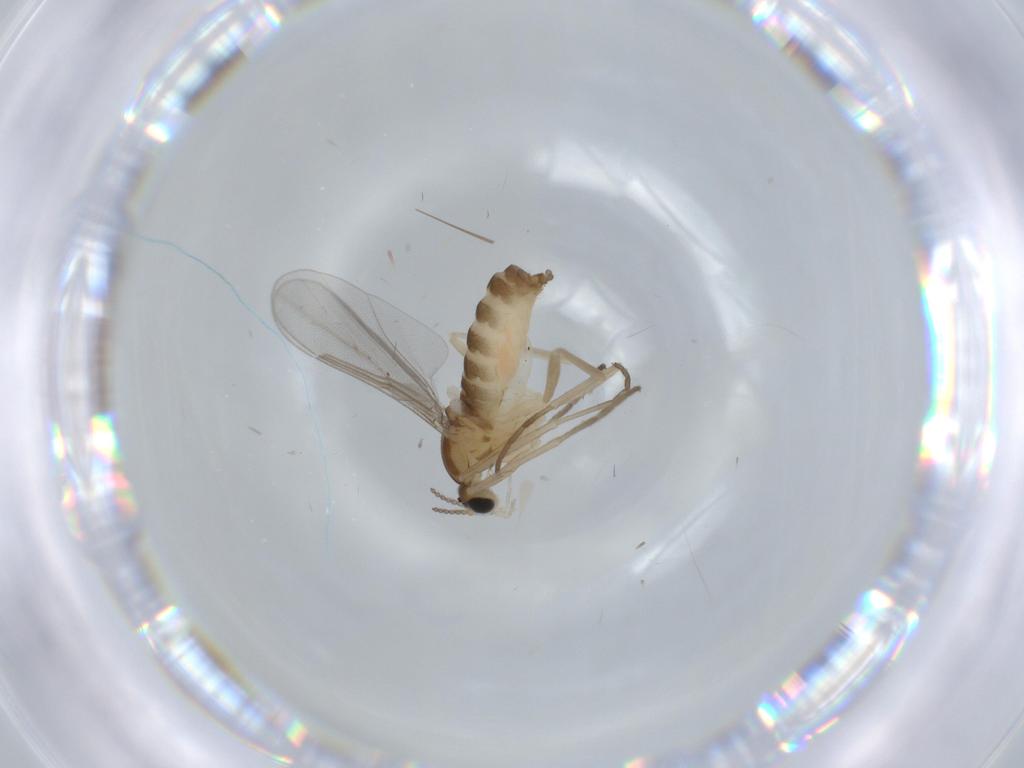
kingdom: Animalia
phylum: Arthropoda
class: Insecta
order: Diptera
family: Cecidomyiidae
